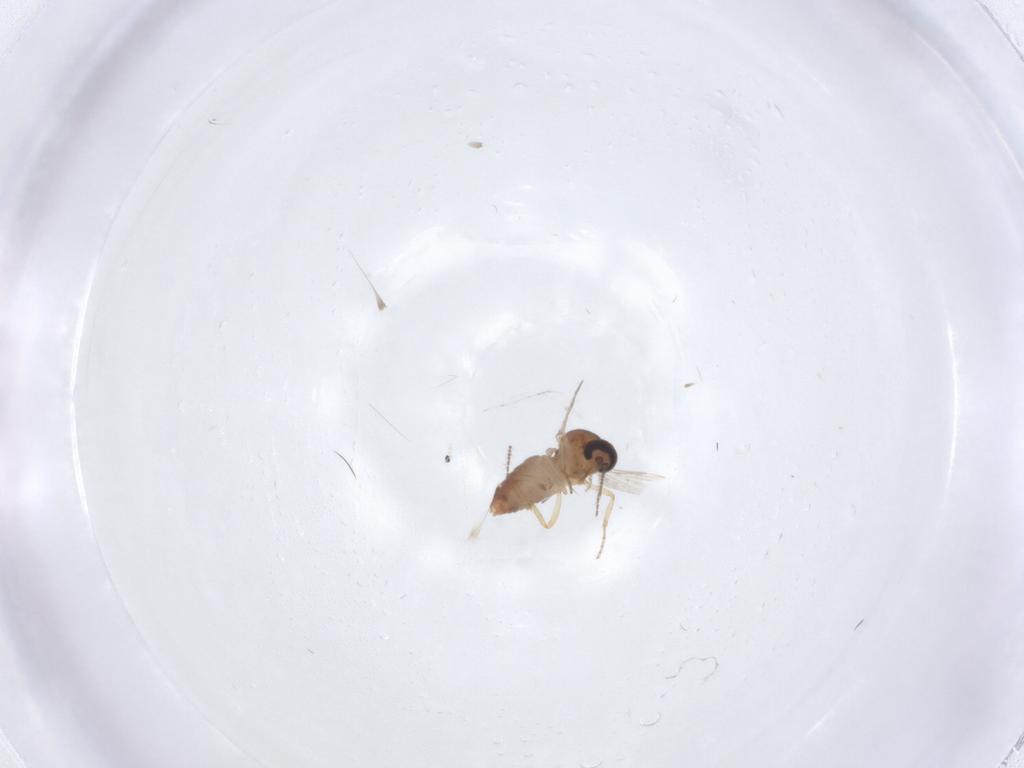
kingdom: Animalia
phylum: Arthropoda
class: Insecta
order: Diptera
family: Ceratopogonidae
